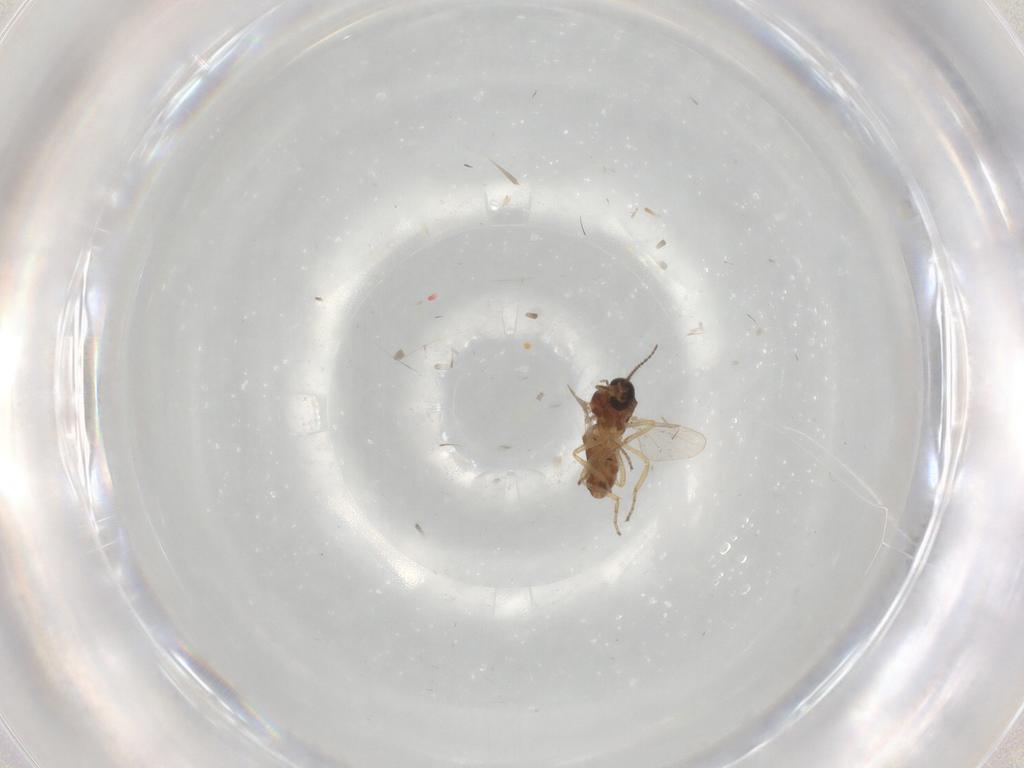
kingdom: Animalia
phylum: Arthropoda
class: Insecta
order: Diptera
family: Ceratopogonidae
